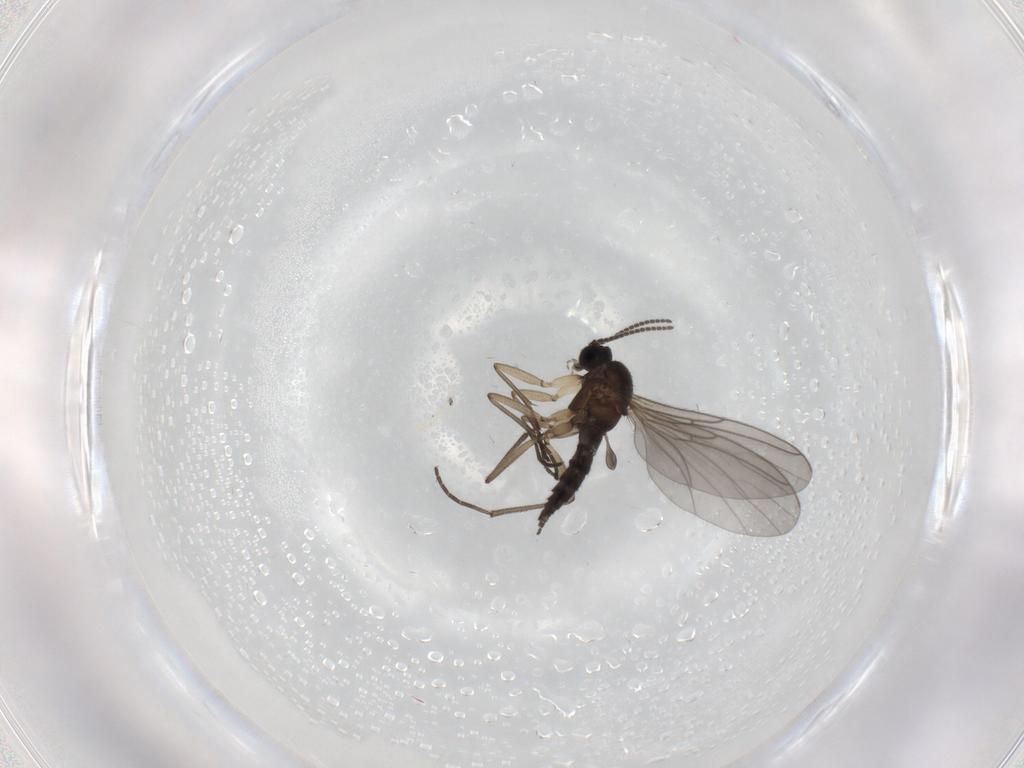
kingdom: Animalia
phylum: Arthropoda
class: Insecta
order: Diptera
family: Sciaridae
